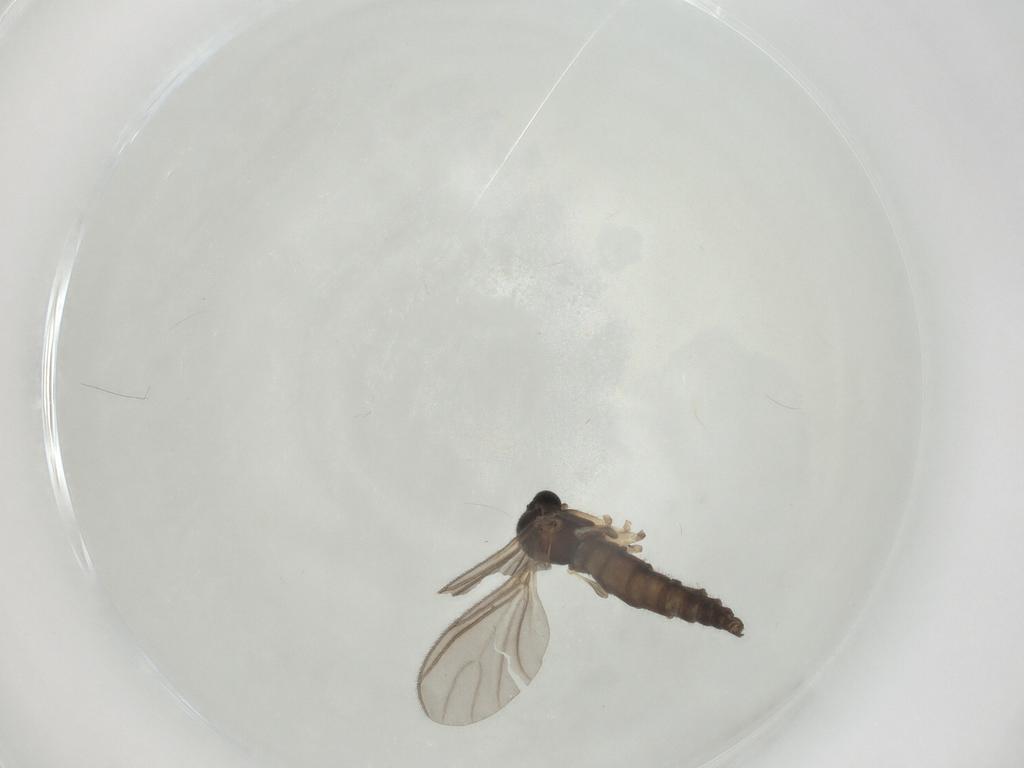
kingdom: Animalia
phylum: Arthropoda
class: Insecta
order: Diptera
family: Sciaridae
